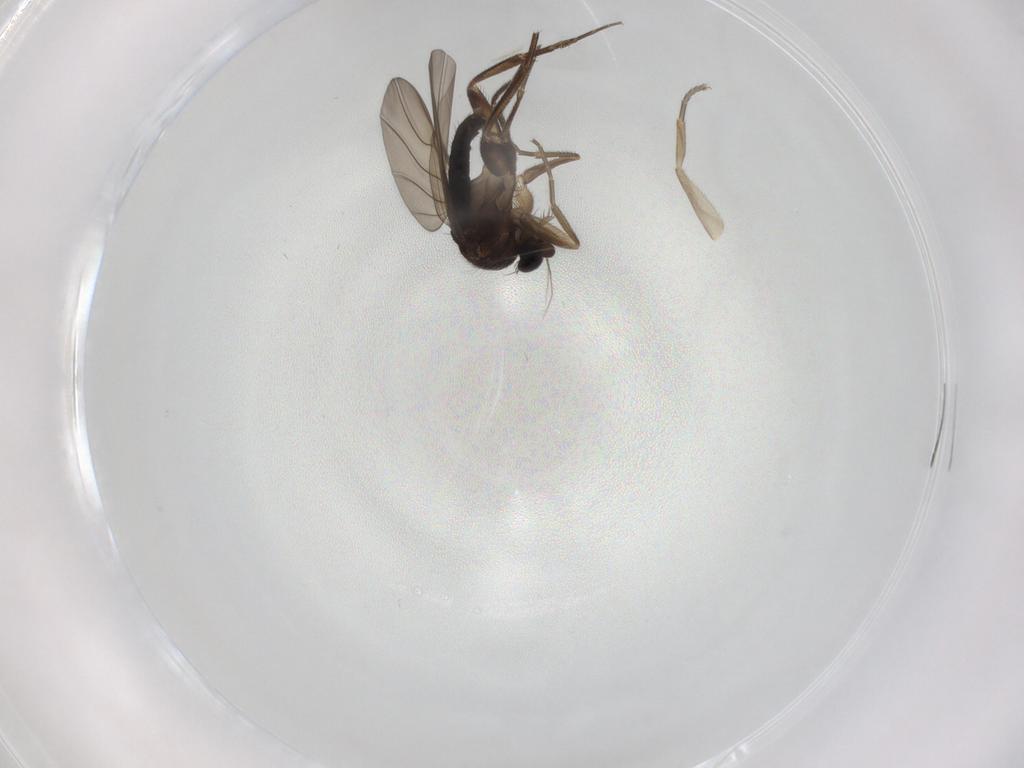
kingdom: Animalia
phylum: Arthropoda
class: Insecta
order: Diptera
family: Phoridae
